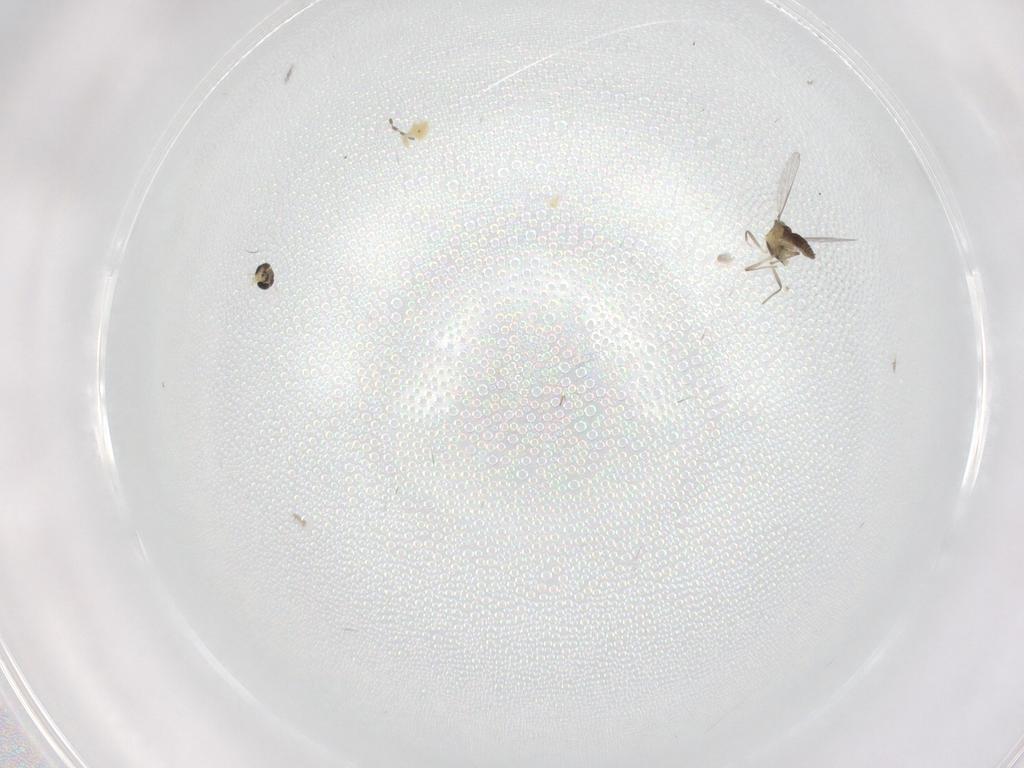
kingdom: Animalia
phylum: Arthropoda
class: Insecta
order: Diptera
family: Chironomidae
